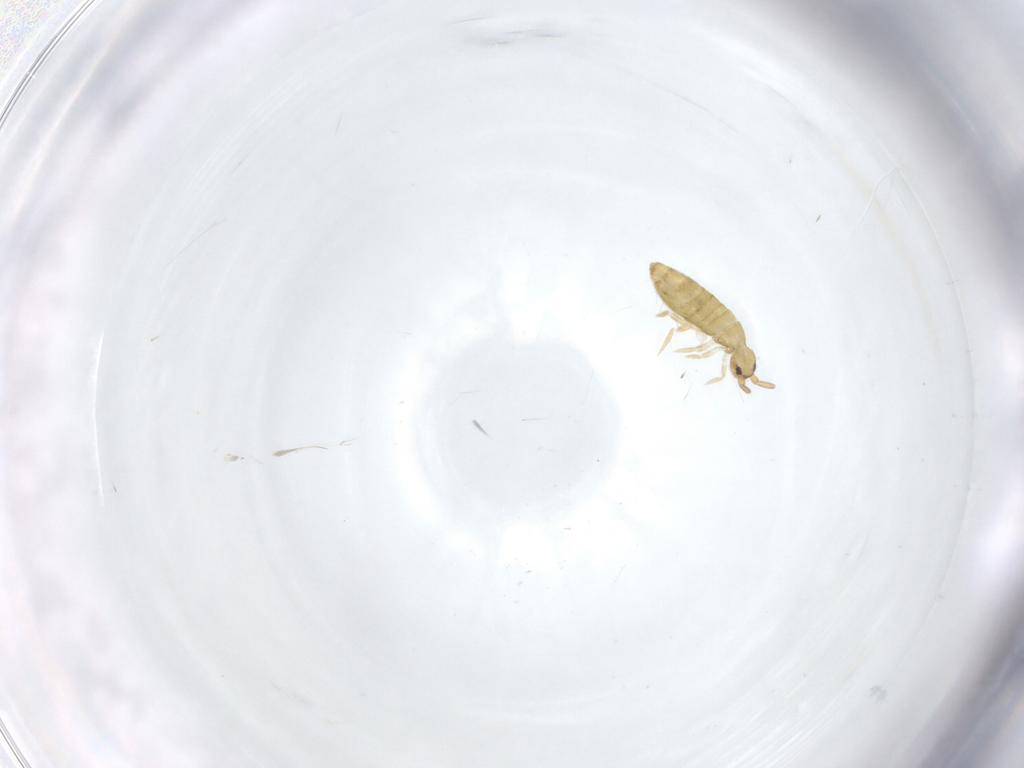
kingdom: Animalia
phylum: Arthropoda
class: Collembola
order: Entomobryomorpha
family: Entomobryidae
